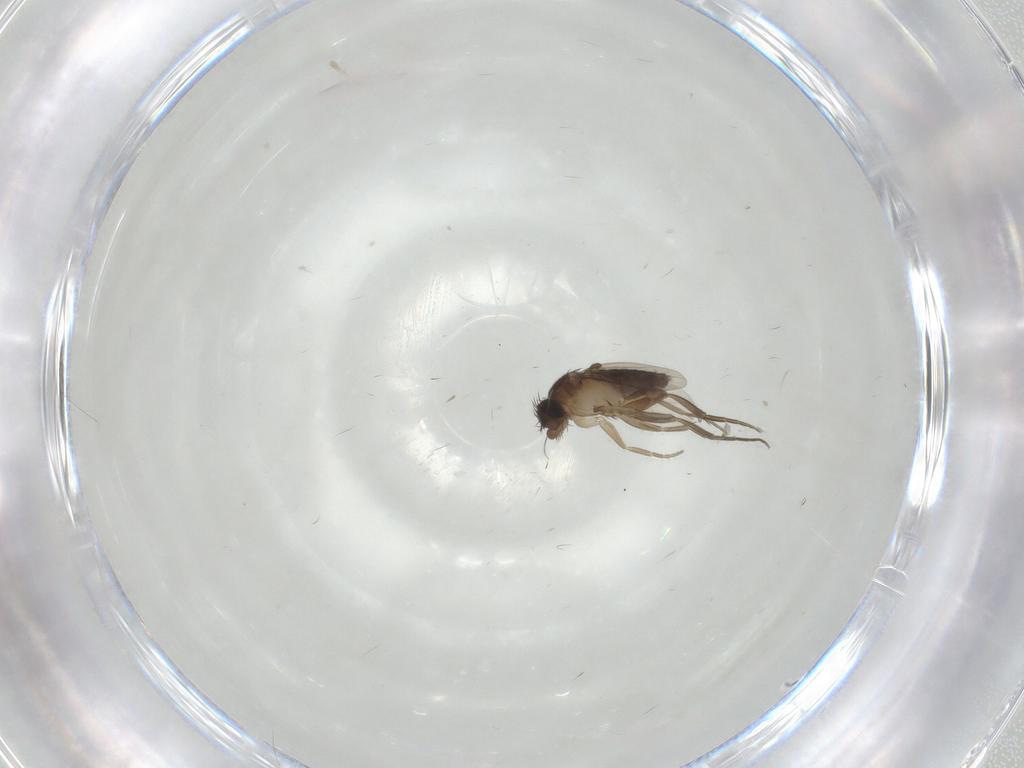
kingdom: Animalia
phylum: Arthropoda
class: Insecta
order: Diptera
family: Phoridae
